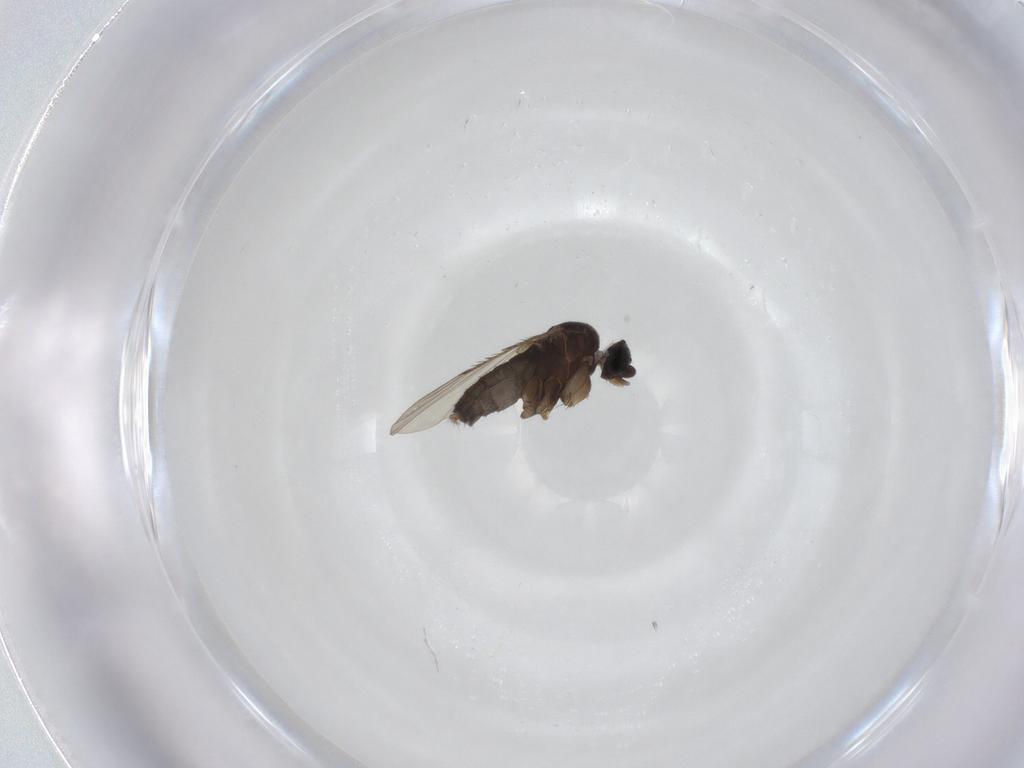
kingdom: Animalia
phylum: Arthropoda
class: Insecta
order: Diptera
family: Phoridae
